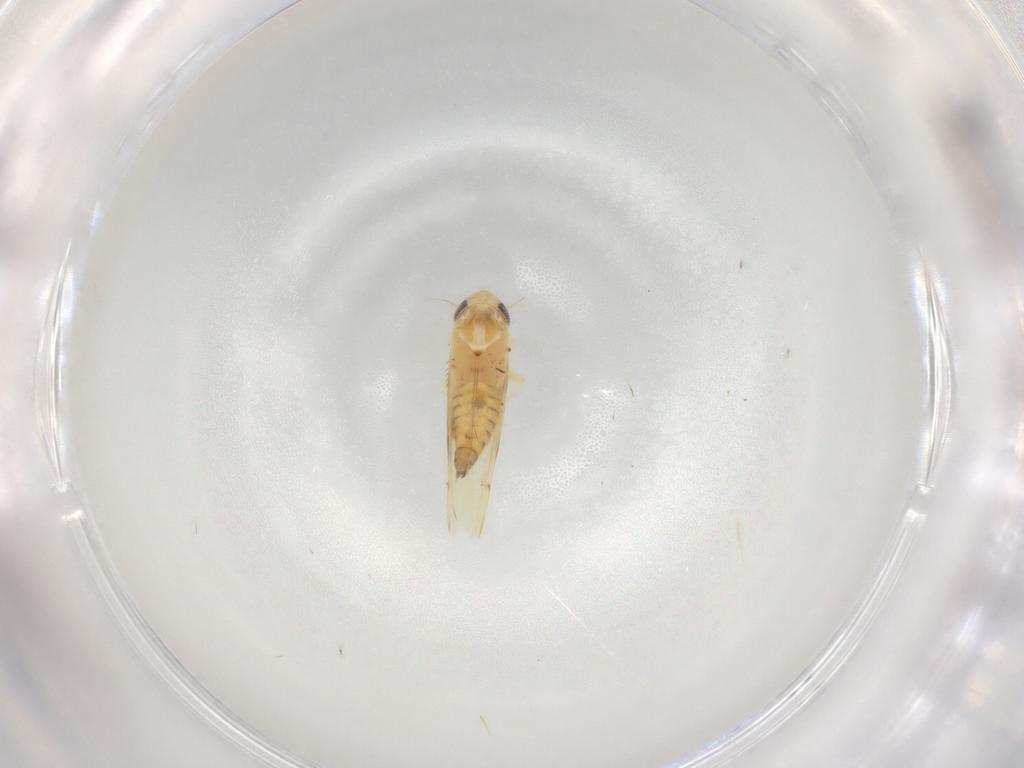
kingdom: Animalia
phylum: Arthropoda
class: Insecta
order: Hemiptera
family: Cicadellidae
